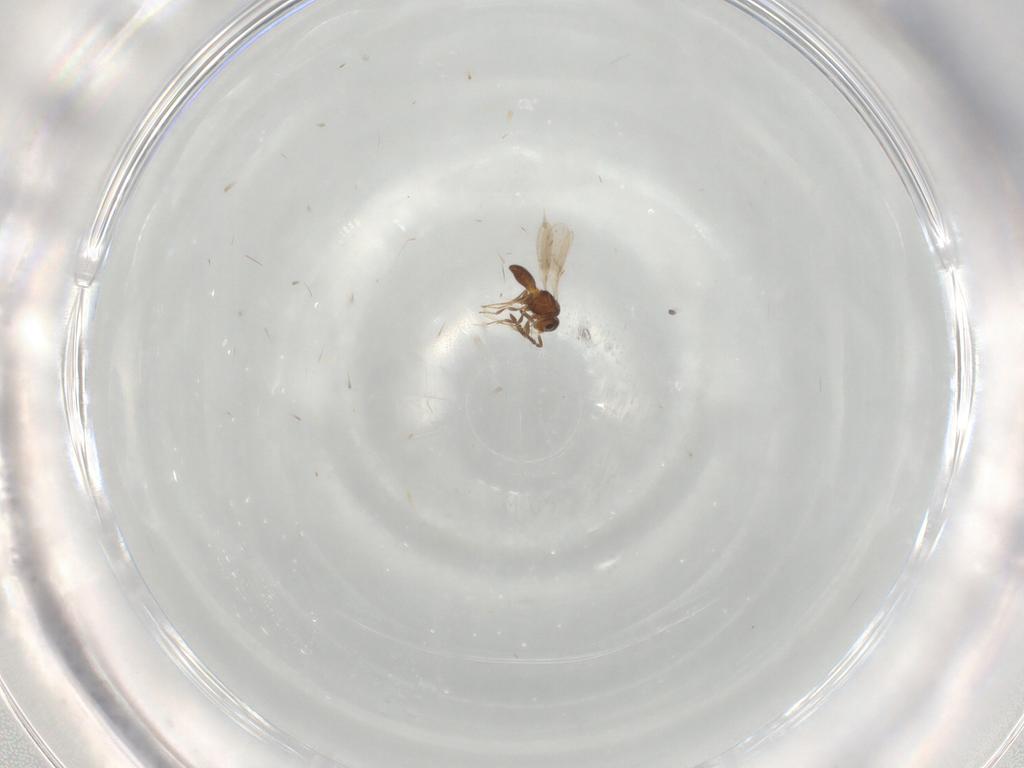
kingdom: Animalia
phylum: Arthropoda
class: Insecta
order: Hymenoptera
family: Scelionidae
